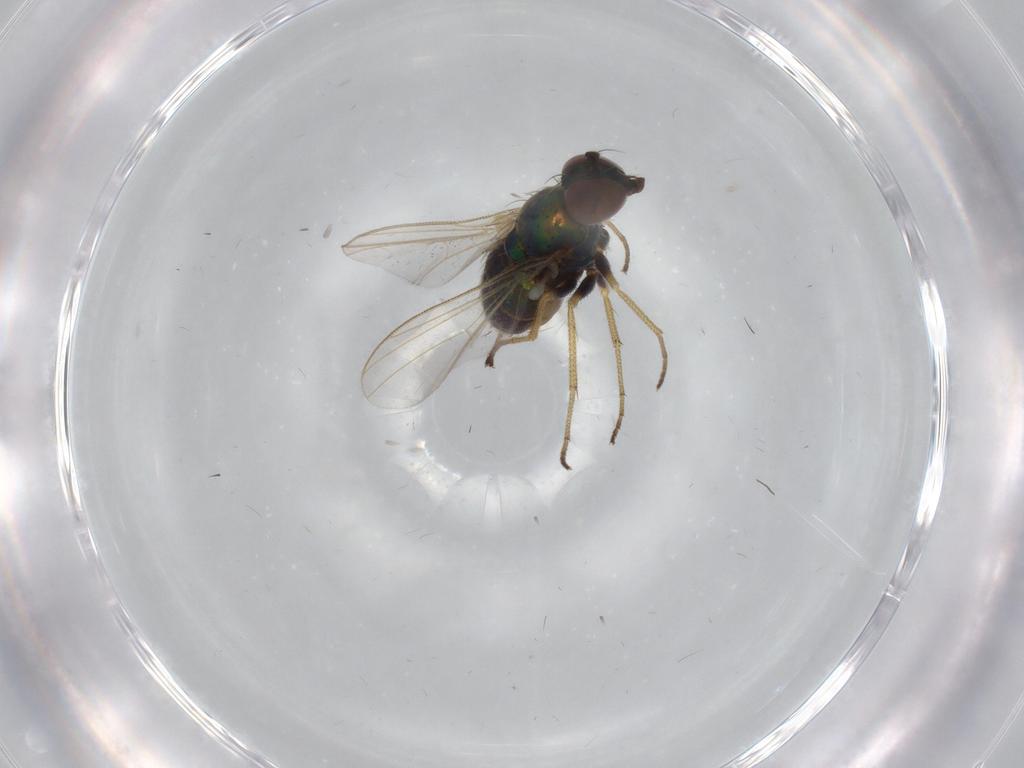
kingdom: Animalia
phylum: Arthropoda
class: Insecta
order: Diptera
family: Dolichopodidae
